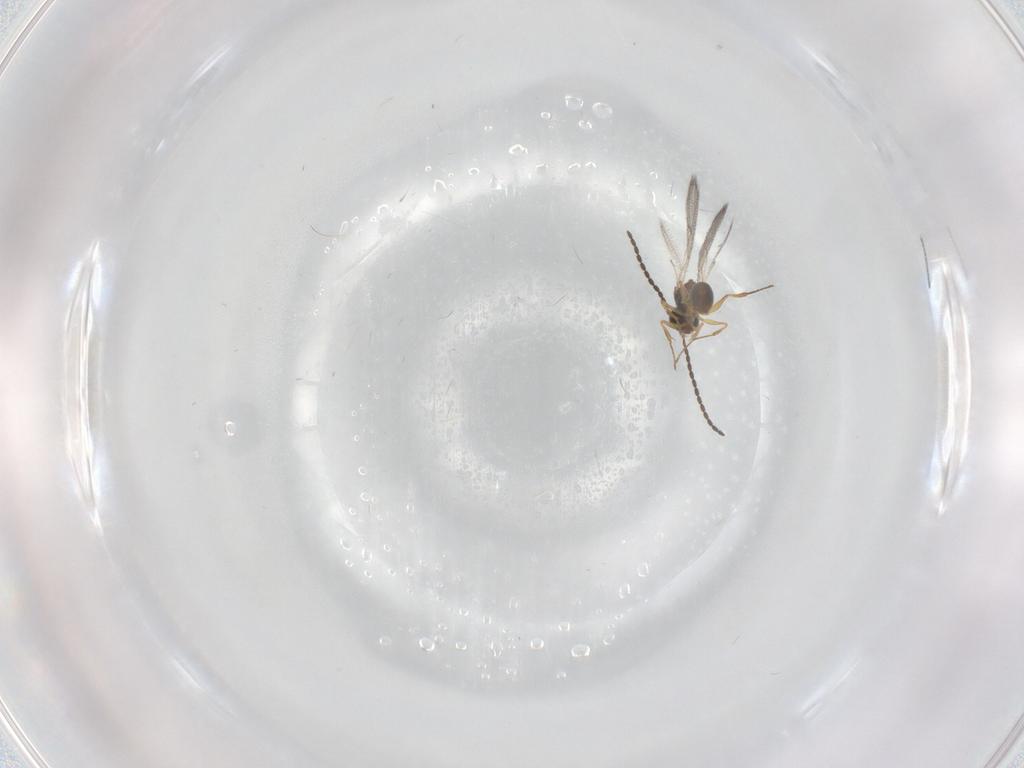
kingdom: Animalia
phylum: Arthropoda
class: Insecta
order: Hymenoptera
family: Figitidae
